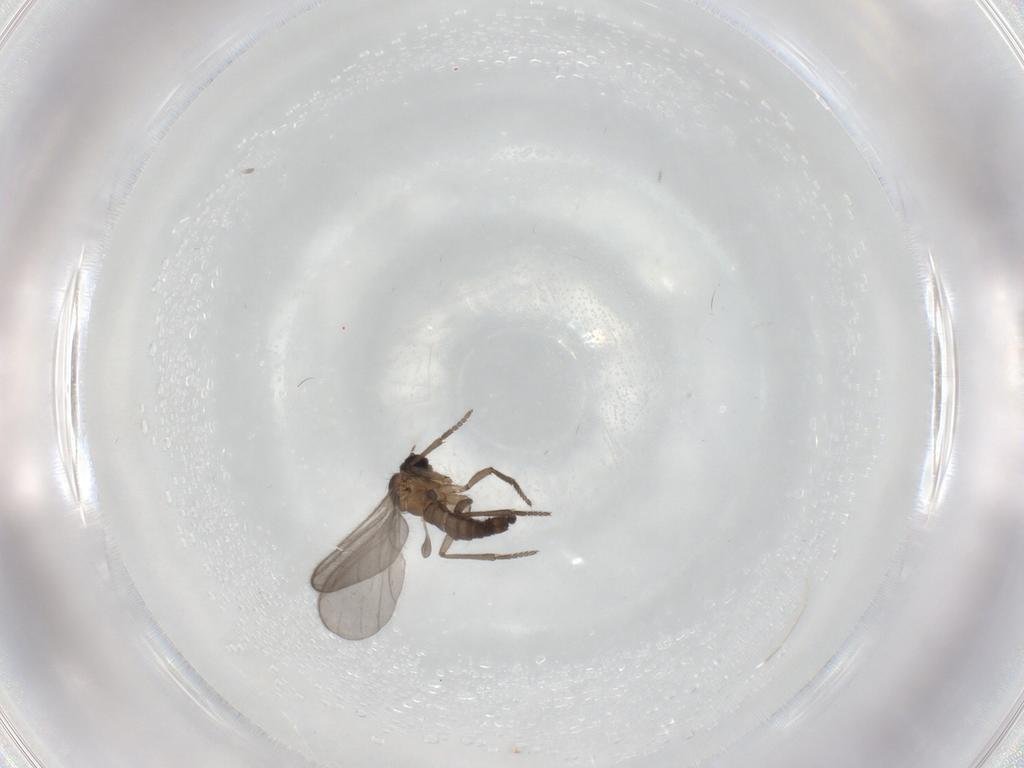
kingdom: Animalia
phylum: Arthropoda
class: Insecta
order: Diptera
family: Sciaridae
